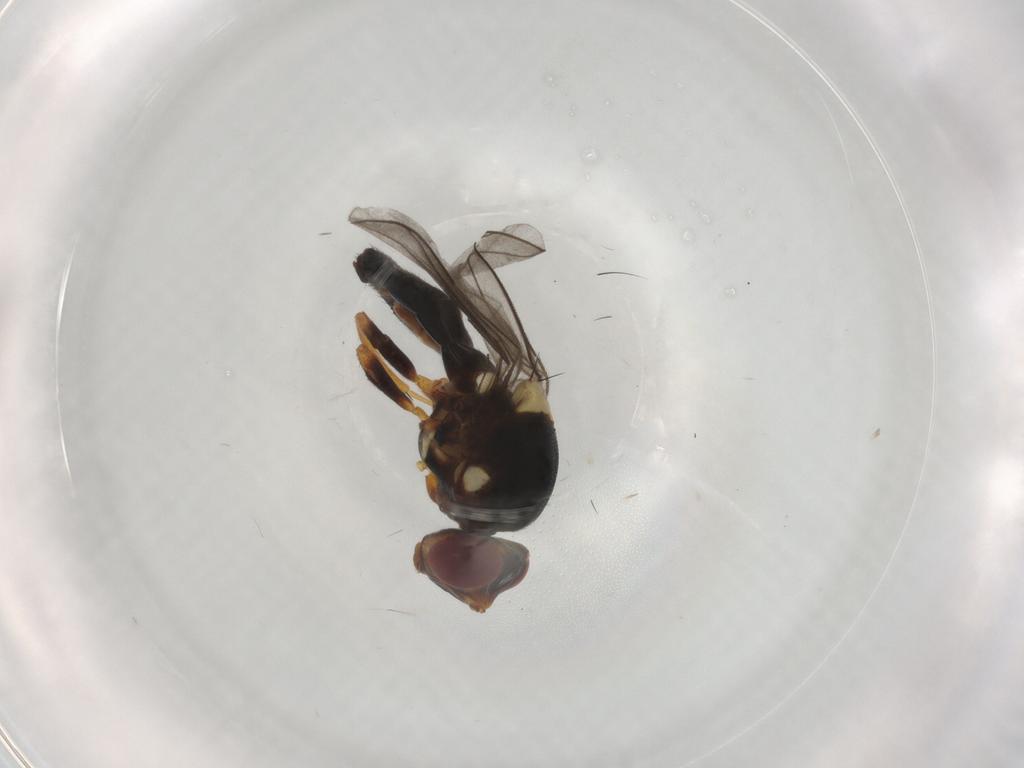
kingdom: Animalia
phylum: Arthropoda
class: Insecta
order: Diptera
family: Chloropidae
